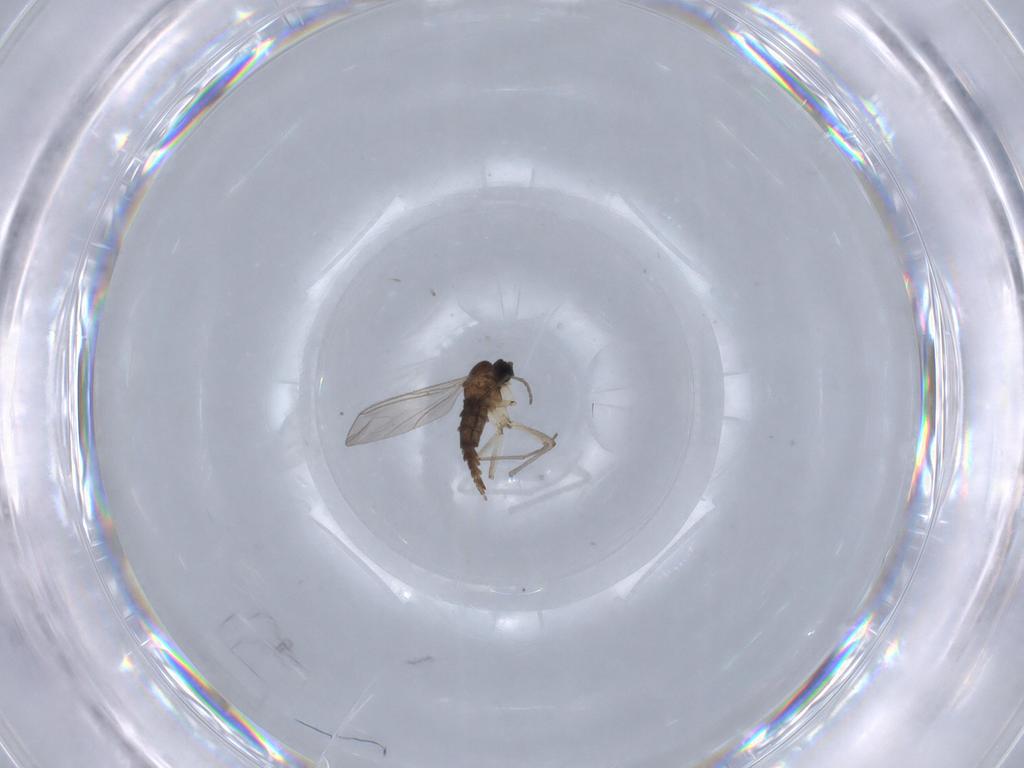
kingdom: Animalia
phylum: Arthropoda
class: Insecta
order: Diptera
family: Sciaridae
